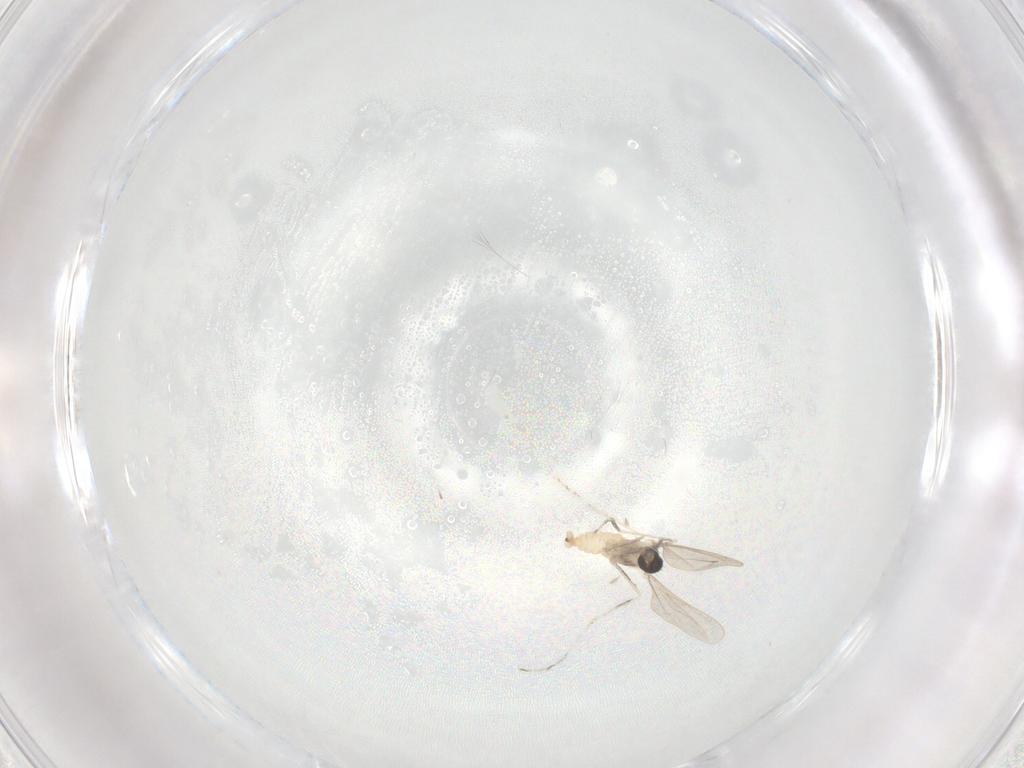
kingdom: Animalia
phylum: Arthropoda
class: Insecta
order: Diptera
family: Cecidomyiidae
